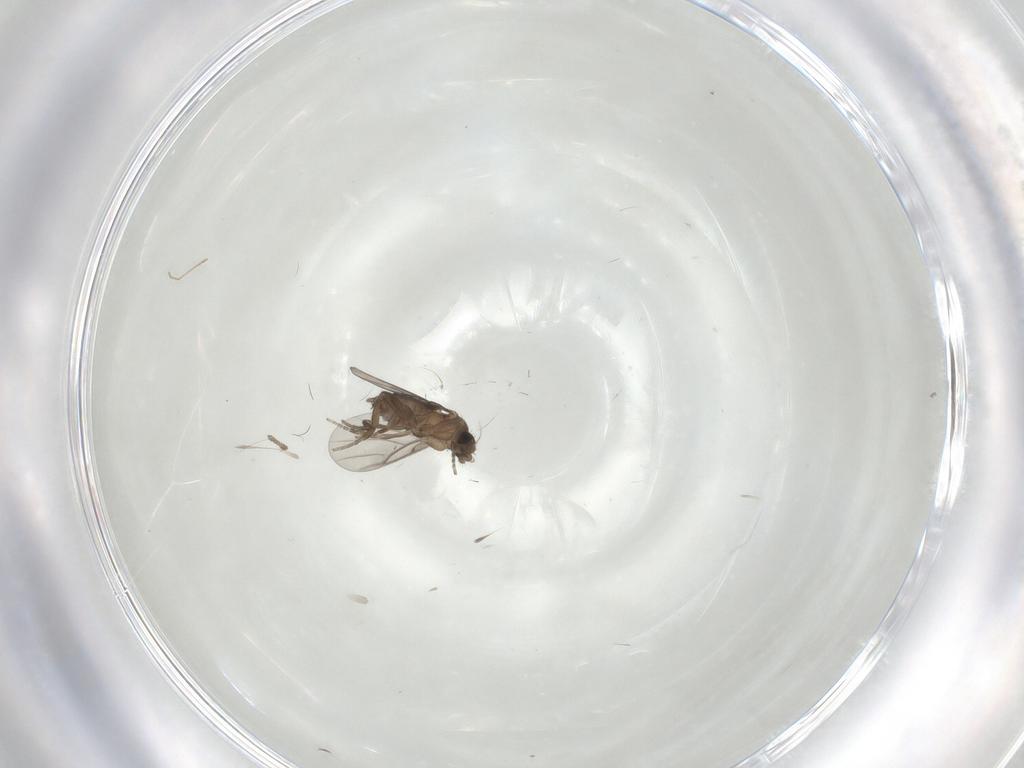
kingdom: Animalia
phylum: Arthropoda
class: Insecta
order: Diptera
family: Phoridae
